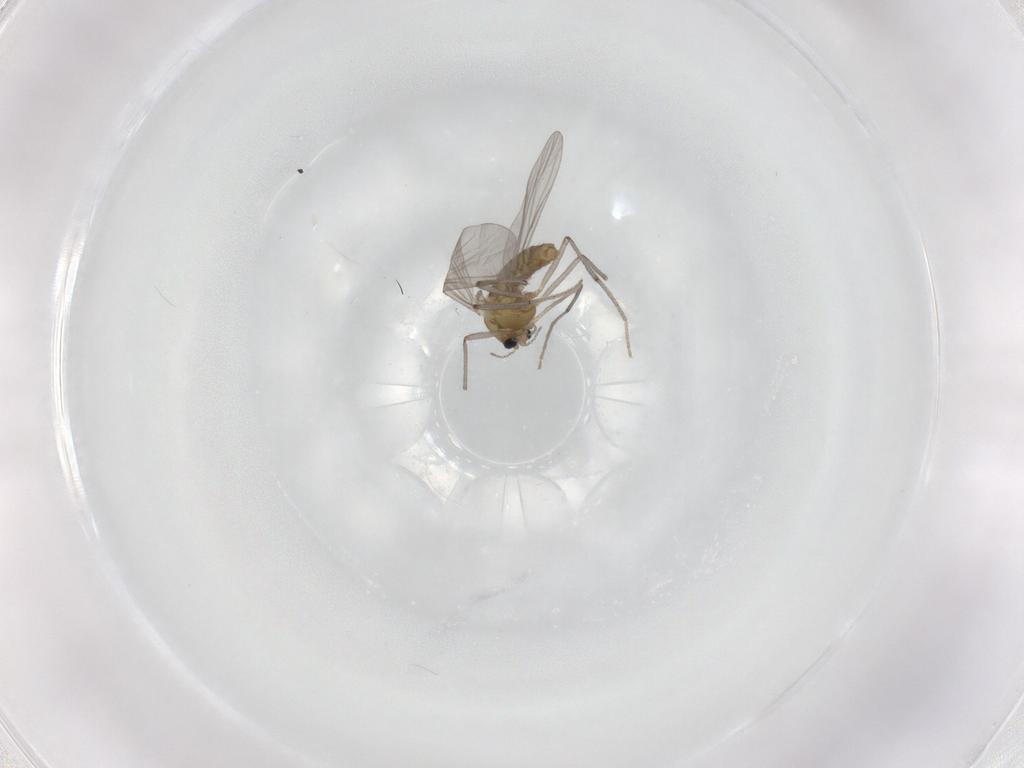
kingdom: Animalia
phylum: Arthropoda
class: Insecta
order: Diptera
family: Chironomidae
